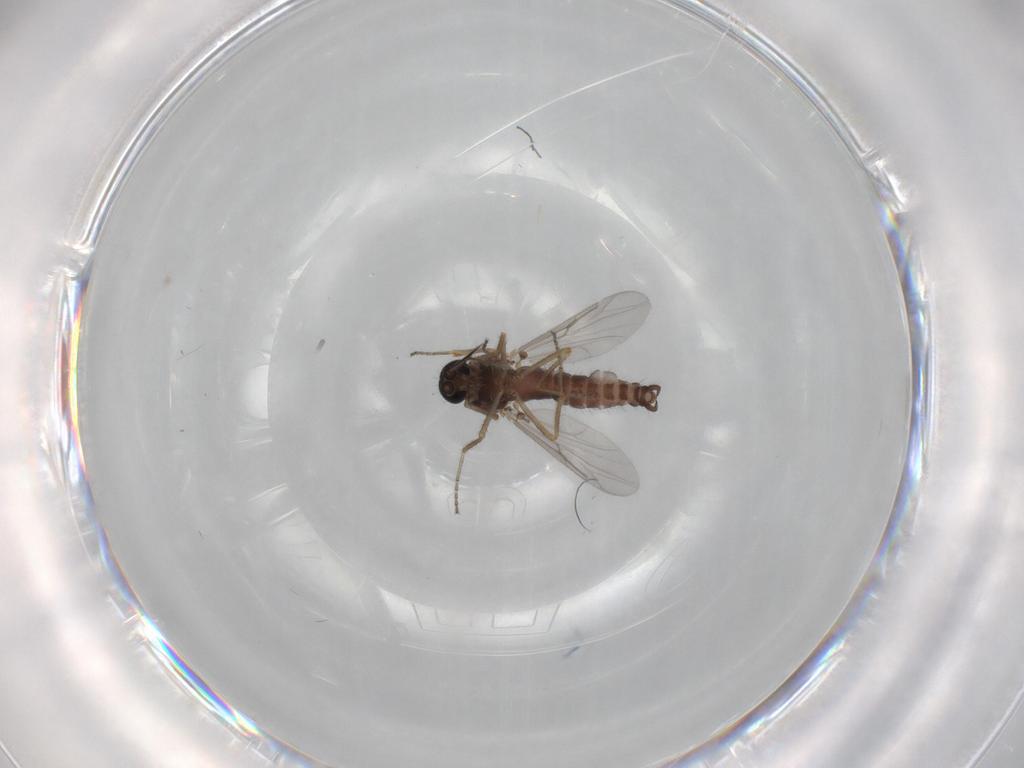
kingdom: Animalia
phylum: Arthropoda
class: Insecta
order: Diptera
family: Ceratopogonidae
